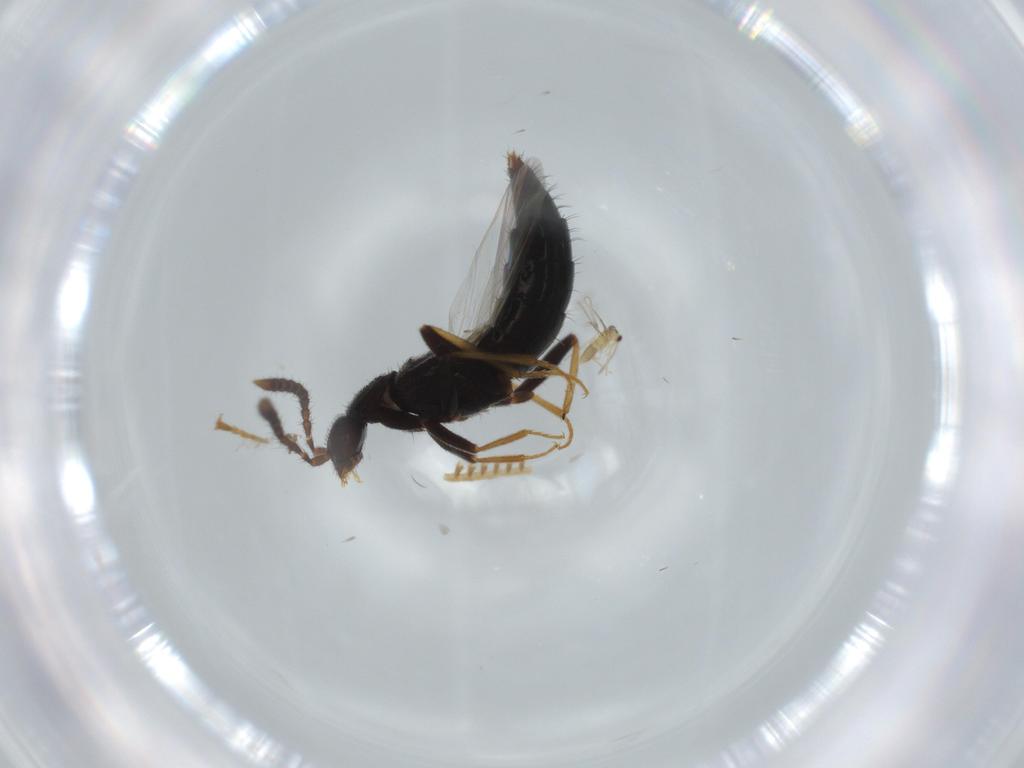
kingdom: Animalia
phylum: Arthropoda
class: Insecta
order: Coleoptera
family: Staphylinidae
